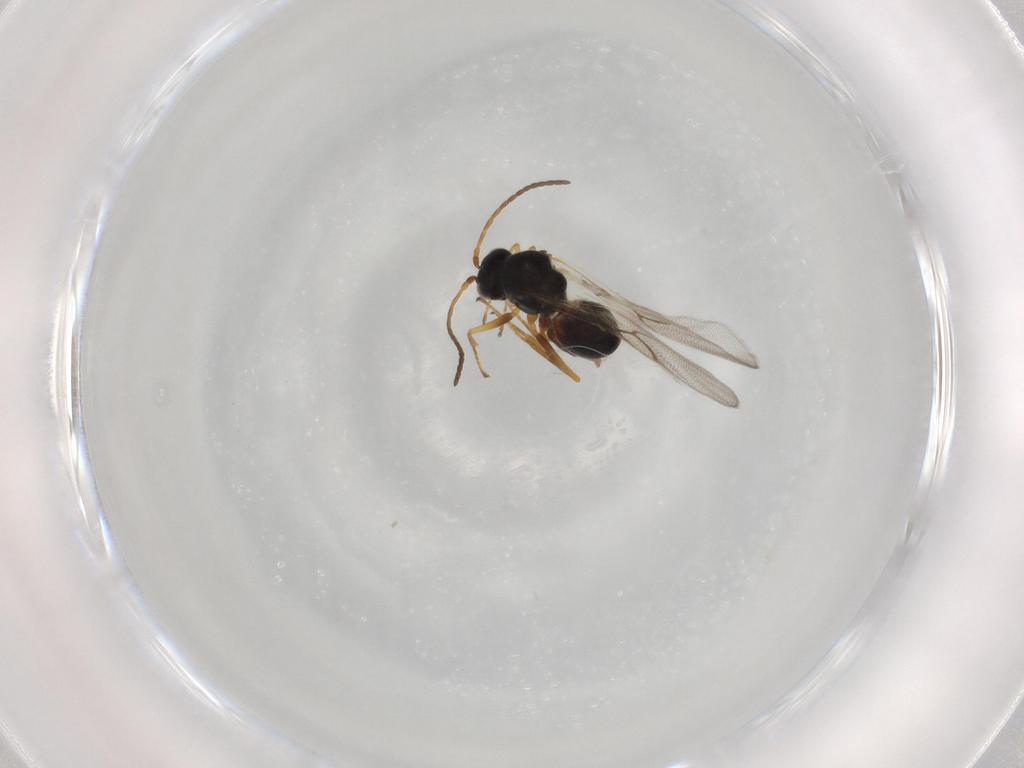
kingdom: Animalia
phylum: Arthropoda
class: Insecta
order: Hymenoptera
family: Figitidae
